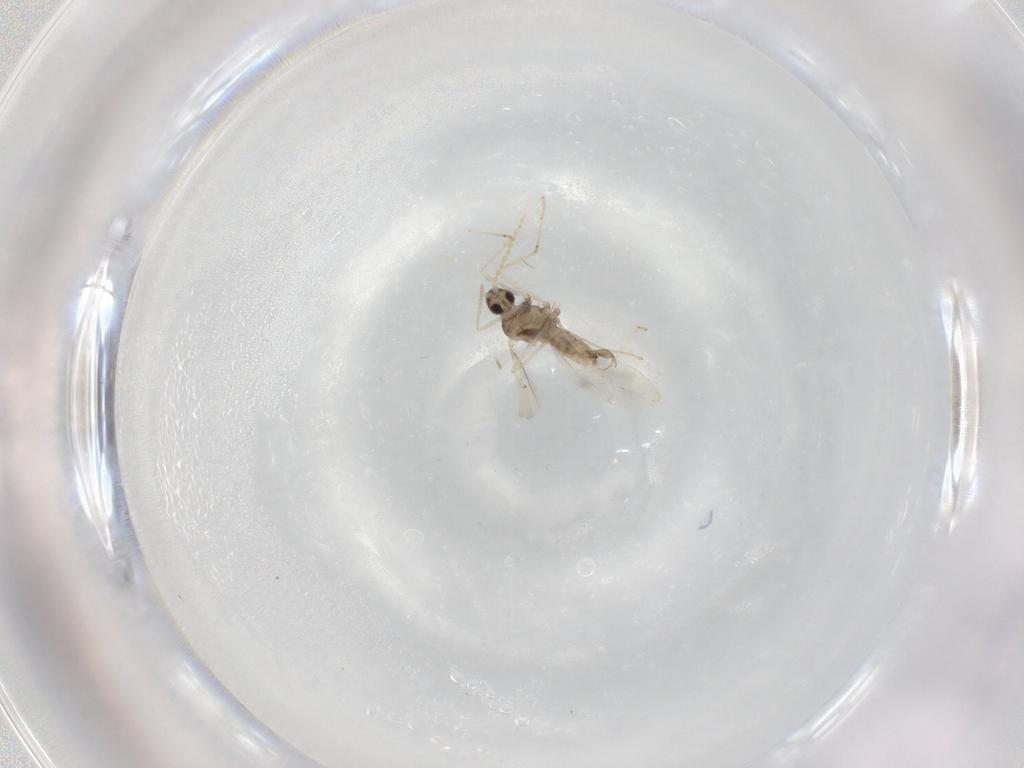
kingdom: Animalia
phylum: Arthropoda
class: Insecta
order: Diptera
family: Cecidomyiidae
